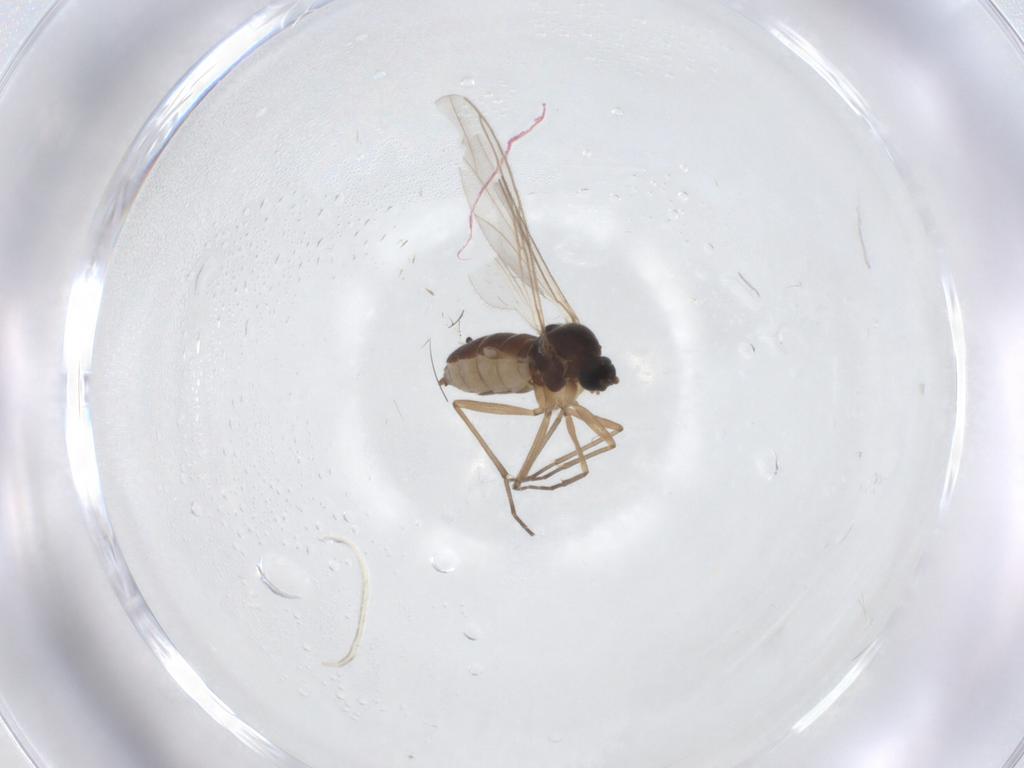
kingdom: Animalia
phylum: Arthropoda
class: Insecta
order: Diptera
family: Sciaridae
